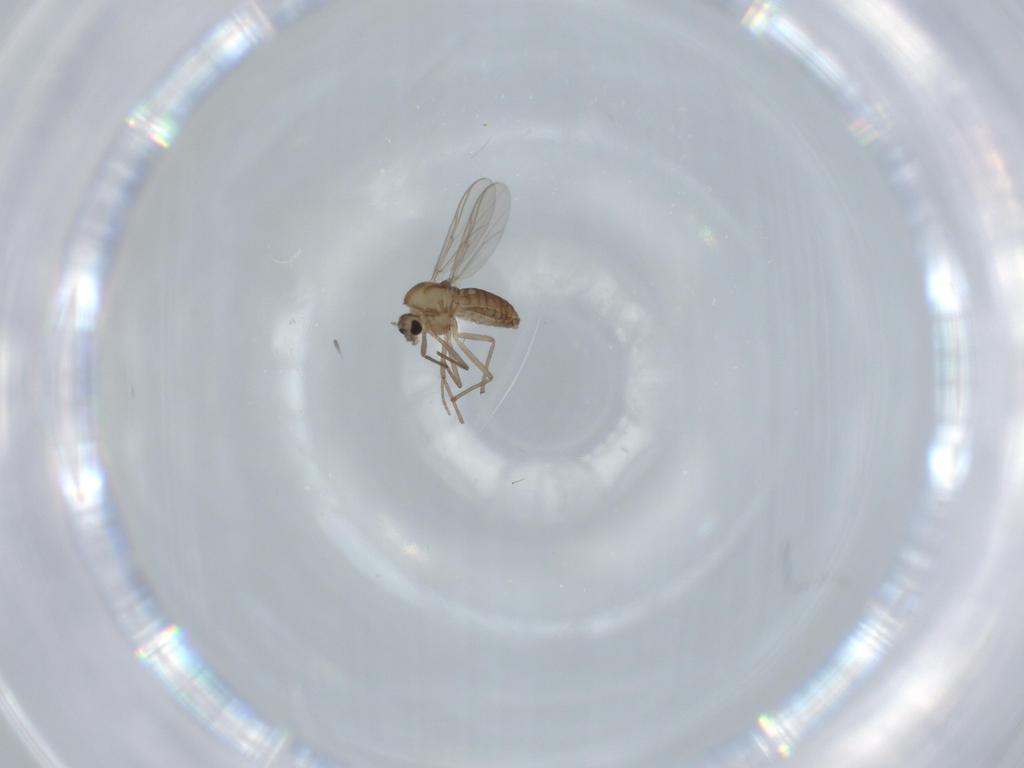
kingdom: Animalia
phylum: Arthropoda
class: Insecta
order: Diptera
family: Chironomidae
